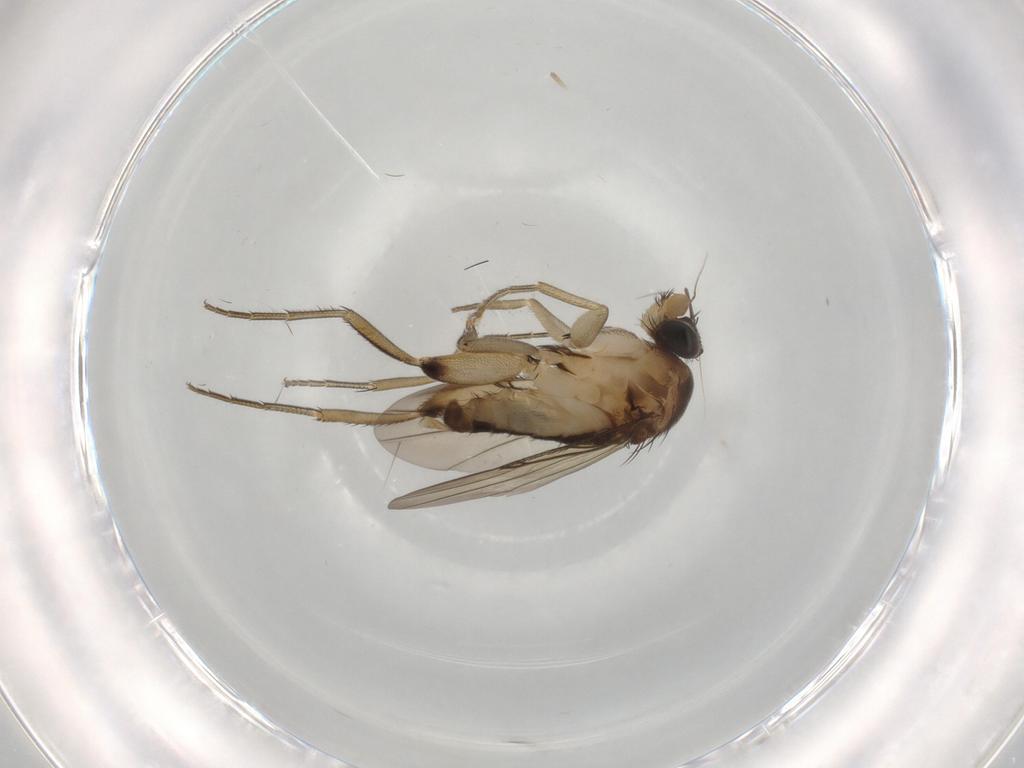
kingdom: Animalia
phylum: Arthropoda
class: Insecta
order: Diptera
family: Phoridae
